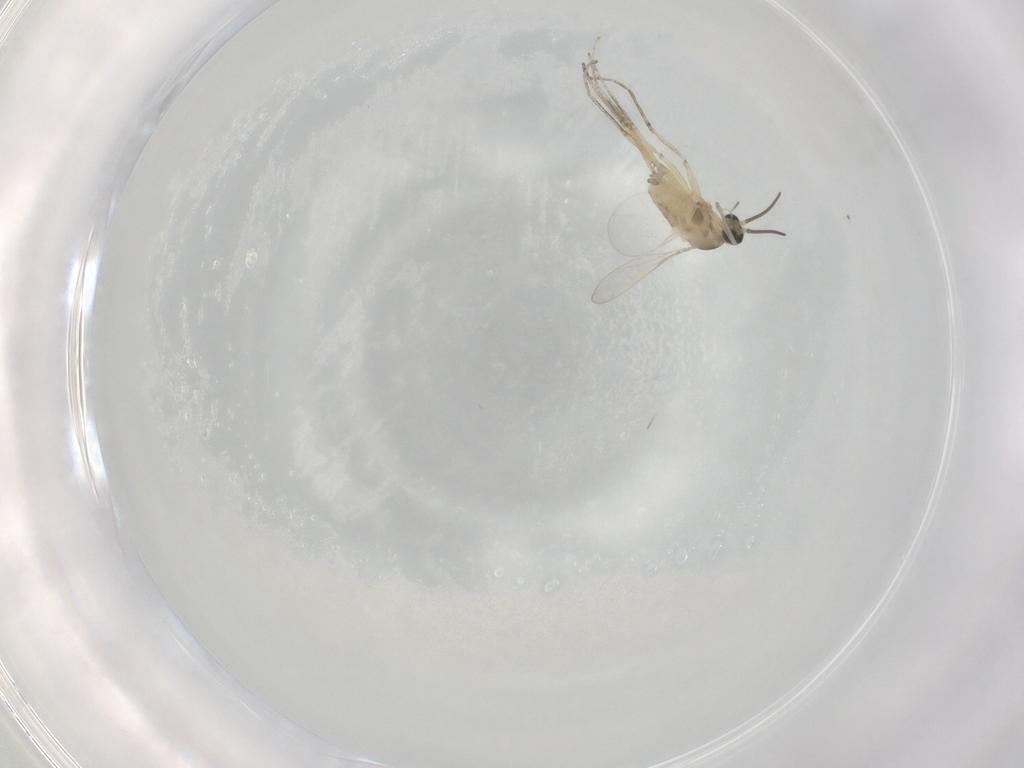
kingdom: Animalia
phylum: Arthropoda
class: Insecta
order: Diptera
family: Cecidomyiidae
